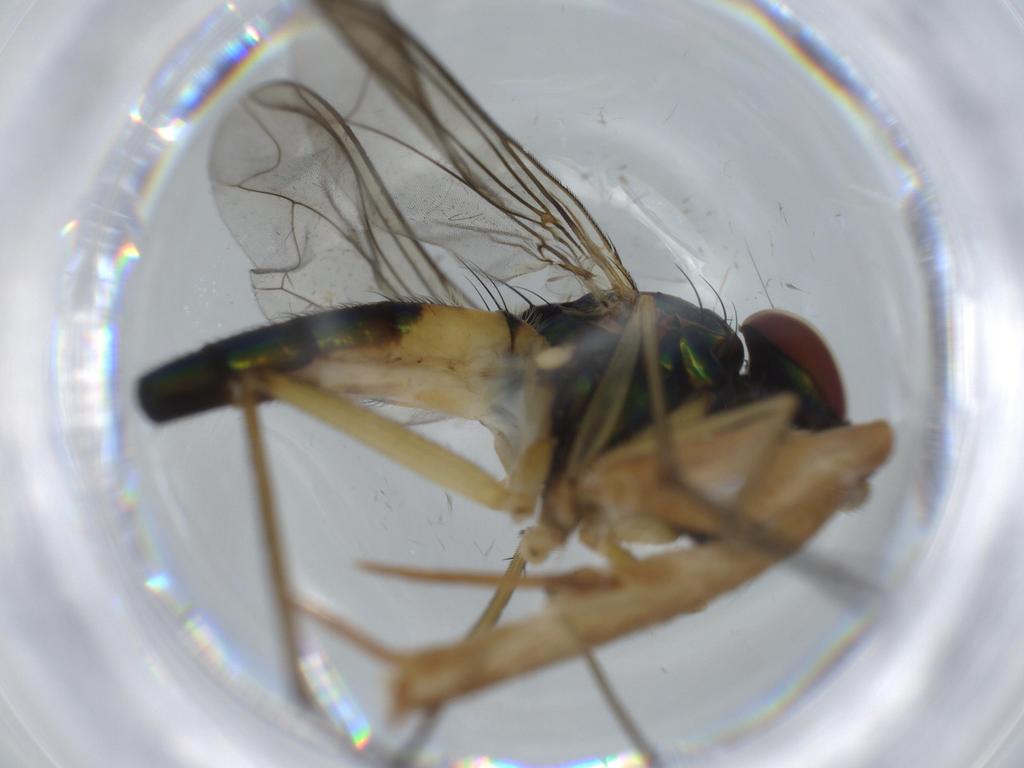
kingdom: Animalia
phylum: Arthropoda
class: Insecta
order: Diptera
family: Dolichopodidae
